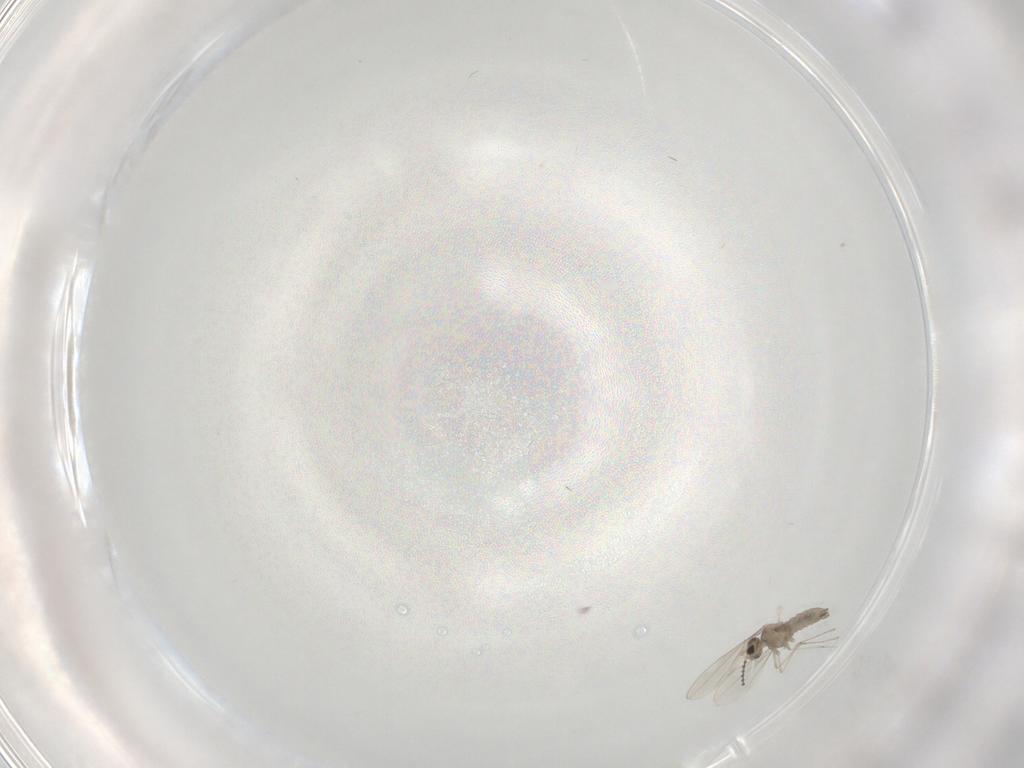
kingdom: Animalia
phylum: Arthropoda
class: Insecta
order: Diptera
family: Cecidomyiidae
